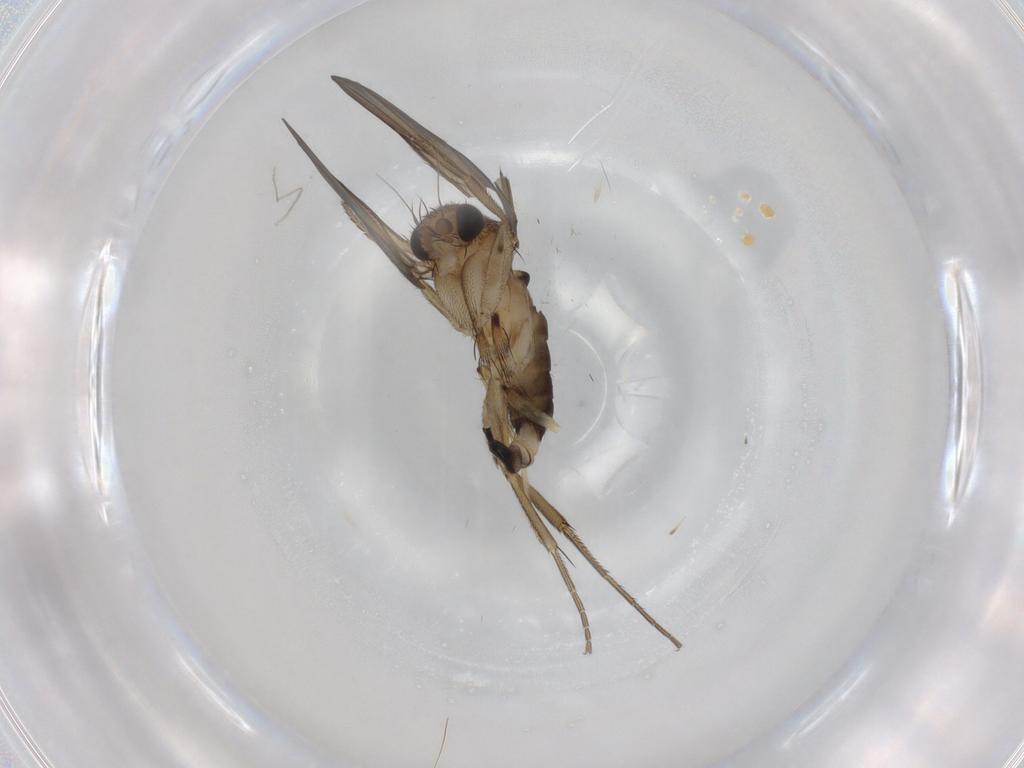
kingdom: Animalia
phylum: Arthropoda
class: Insecta
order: Diptera
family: Phoridae
